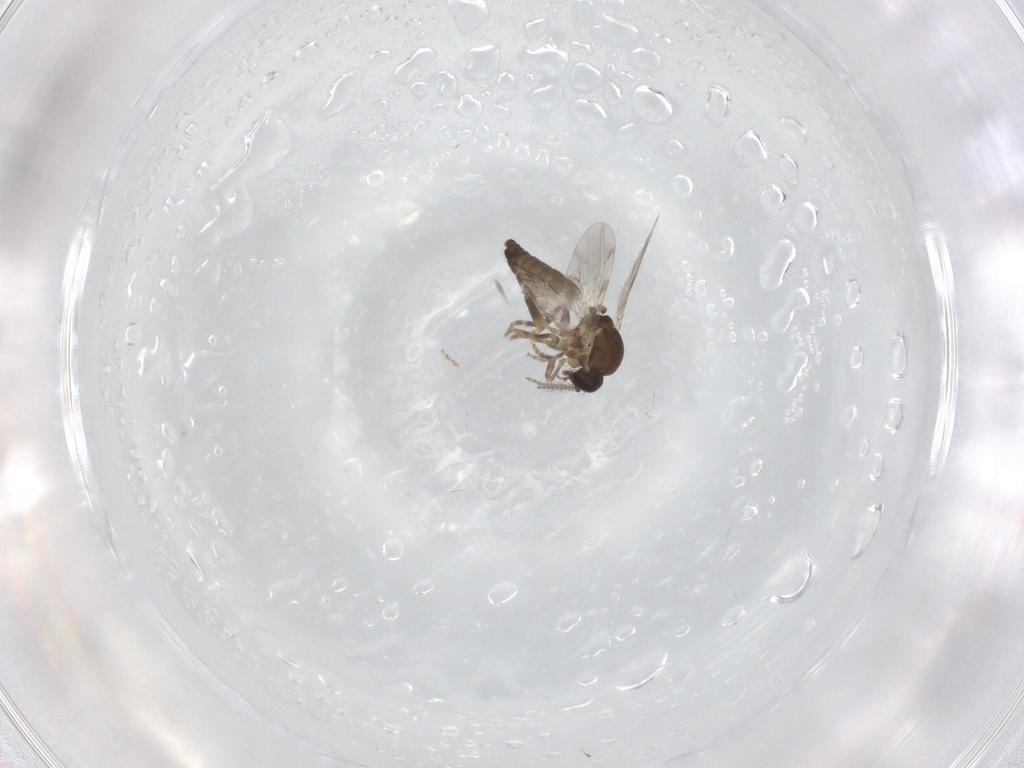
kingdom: Animalia
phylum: Arthropoda
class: Insecta
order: Diptera
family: Ceratopogonidae
